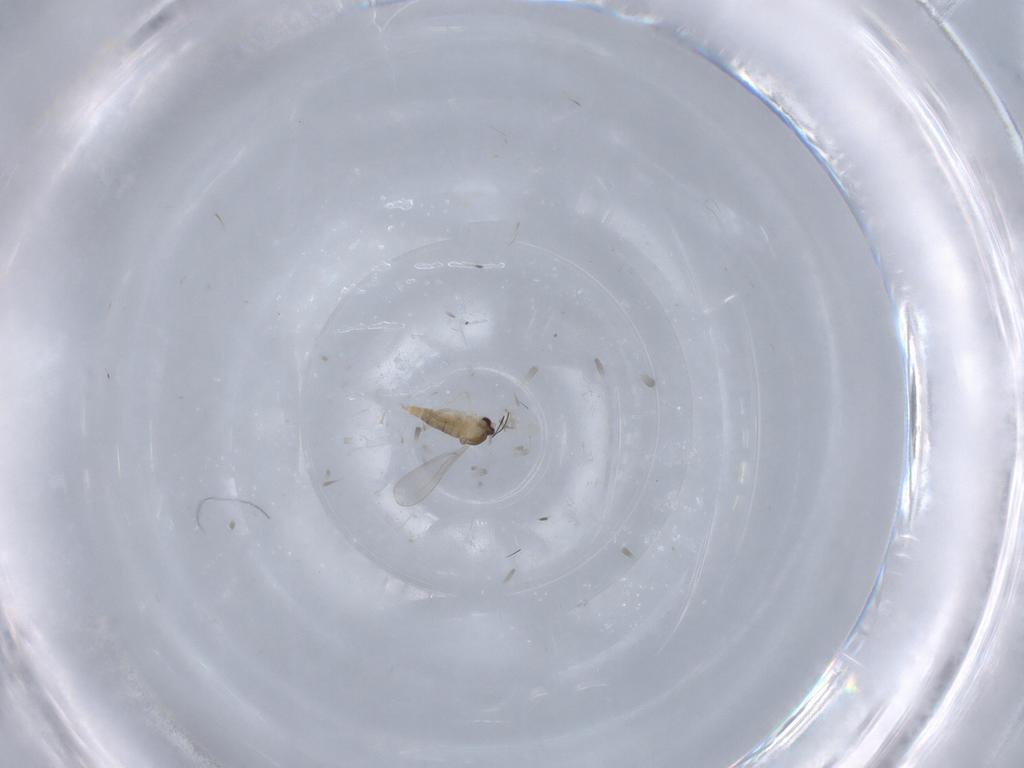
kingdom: Animalia
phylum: Arthropoda
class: Insecta
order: Diptera
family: Cecidomyiidae
